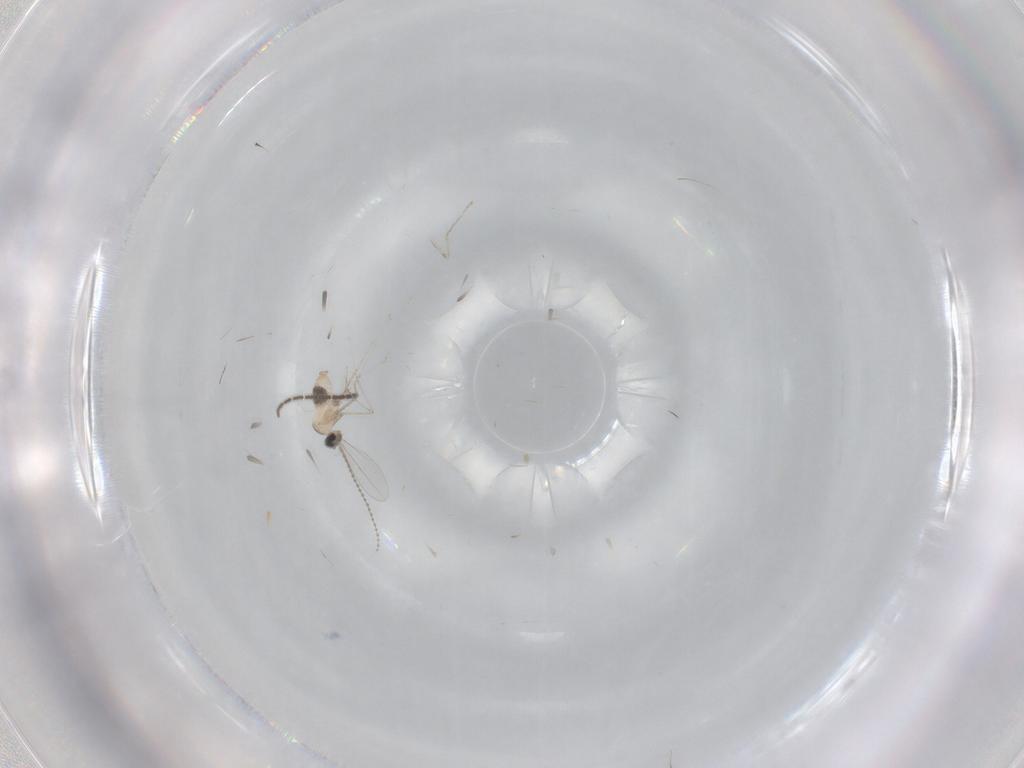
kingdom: Animalia
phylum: Arthropoda
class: Insecta
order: Diptera
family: Cecidomyiidae
